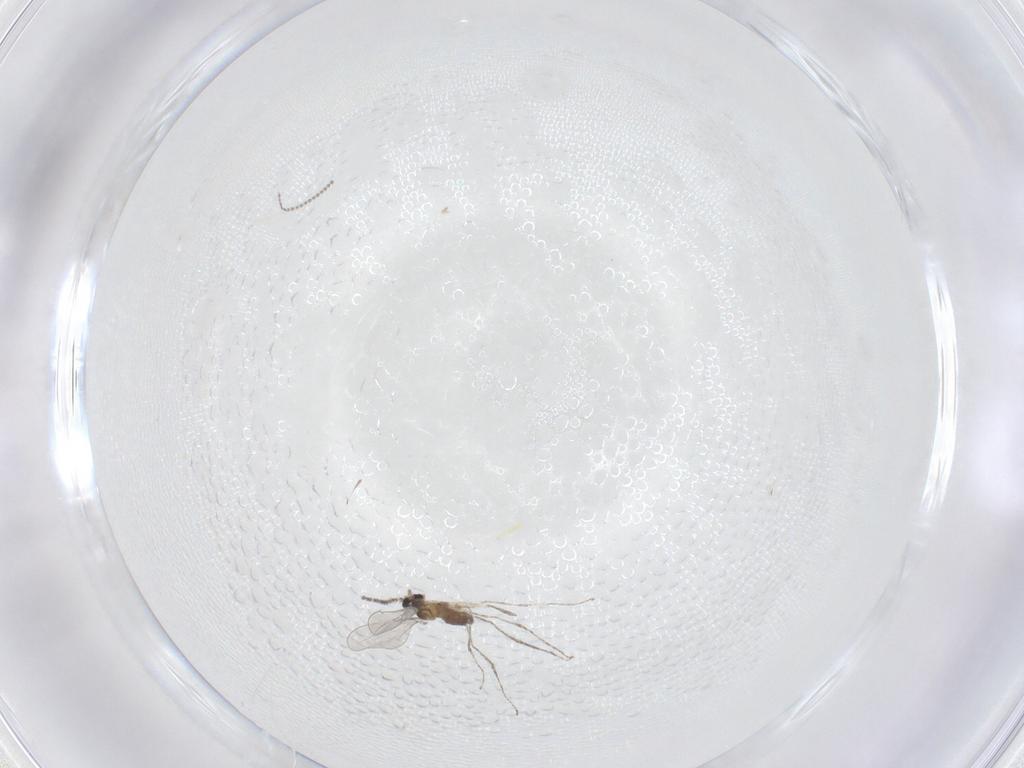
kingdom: Animalia
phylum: Arthropoda
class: Insecta
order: Diptera
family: Cecidomyiidae
